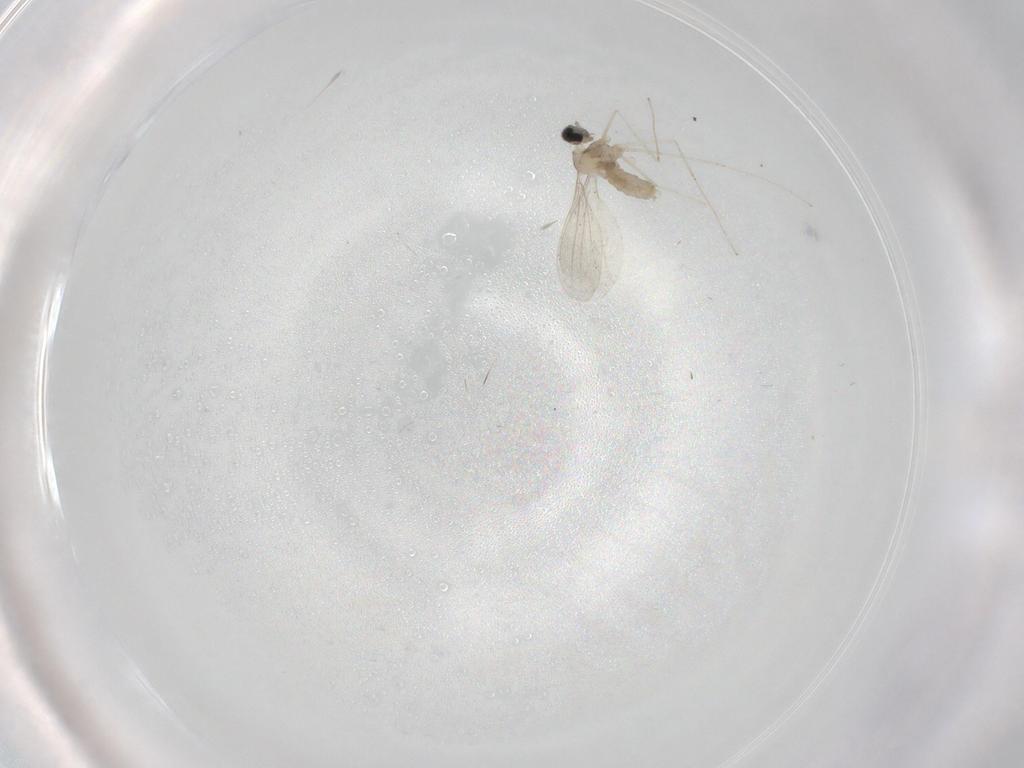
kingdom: Animalia
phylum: Arthropoda
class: Insecta
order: Diptera
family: Cecidomyiidae
